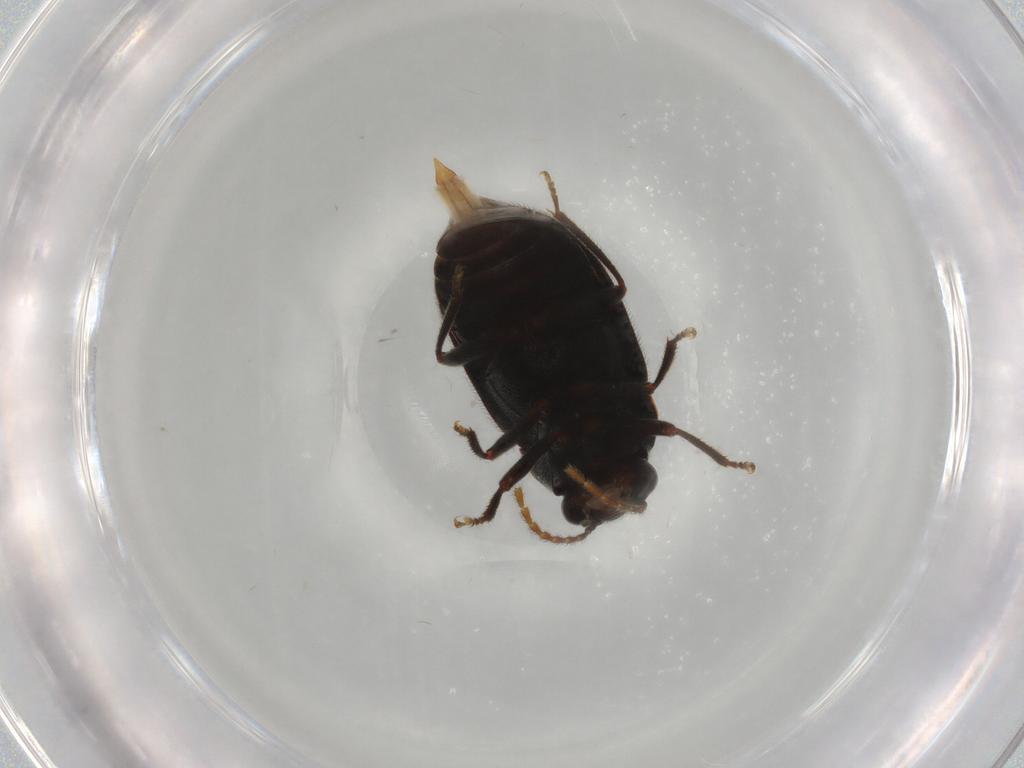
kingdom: Animalia
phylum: Arthropoda
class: Insecta
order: Coleoptera
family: Ptilodactylidae
